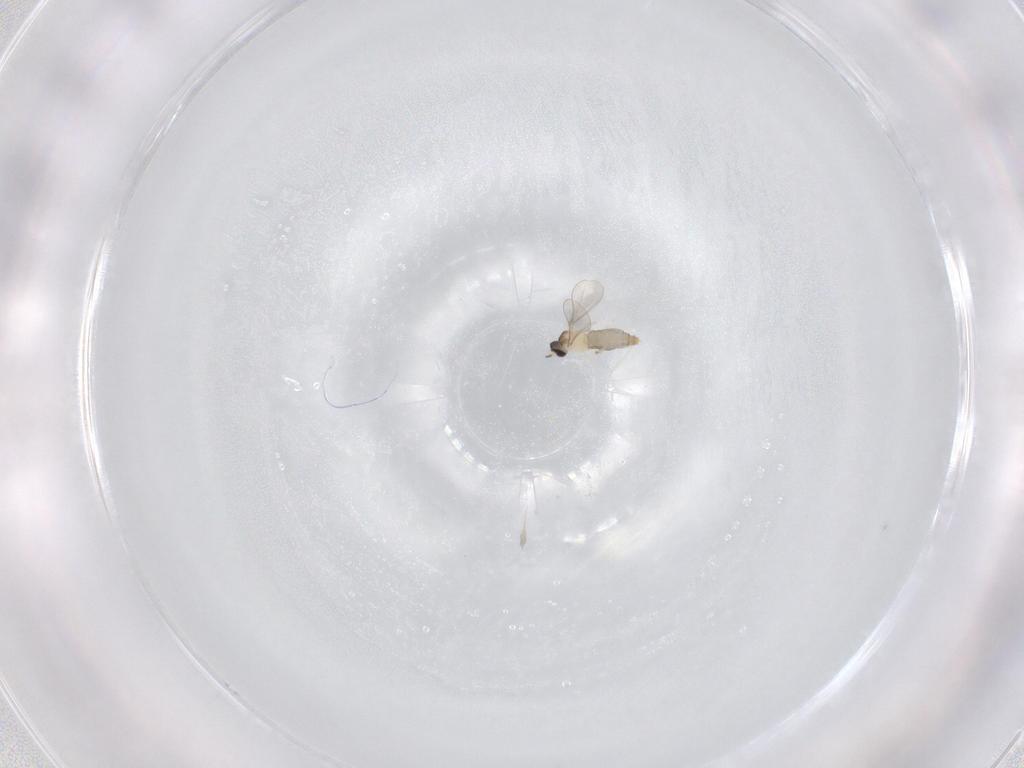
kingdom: Animalia
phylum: Arthropoda
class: Insecta
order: Diptera
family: Cecidomyiidae
